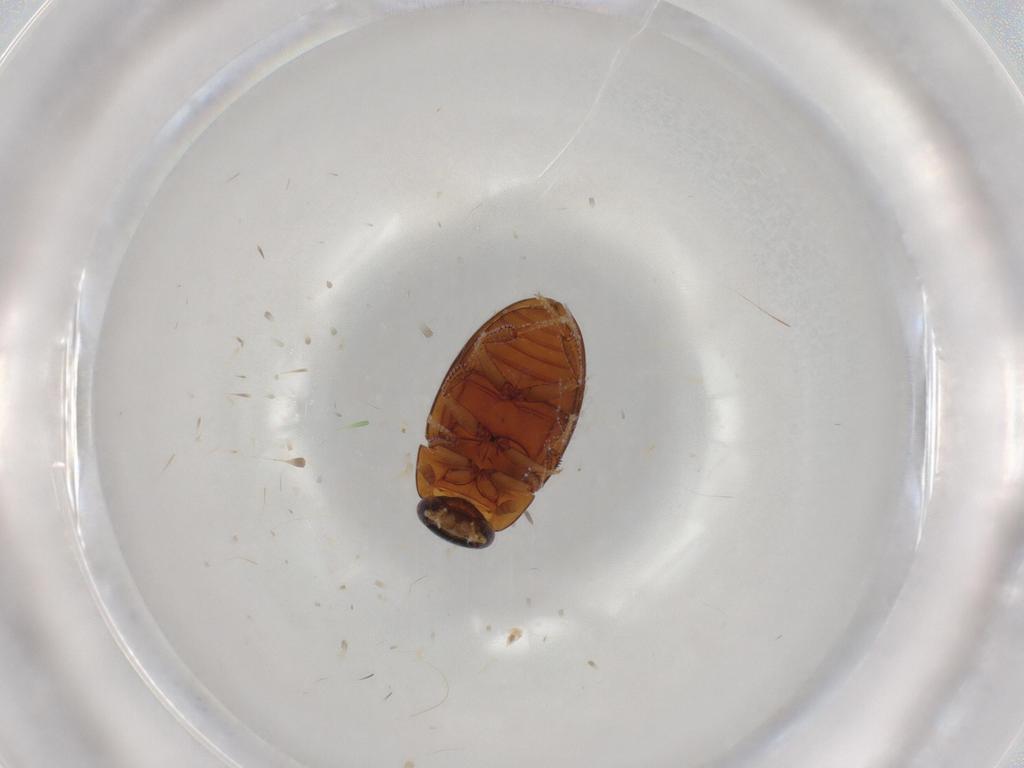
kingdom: Animalia
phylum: Arthropoda
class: Insecta
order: Coleoptera
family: Hydrophilidae
